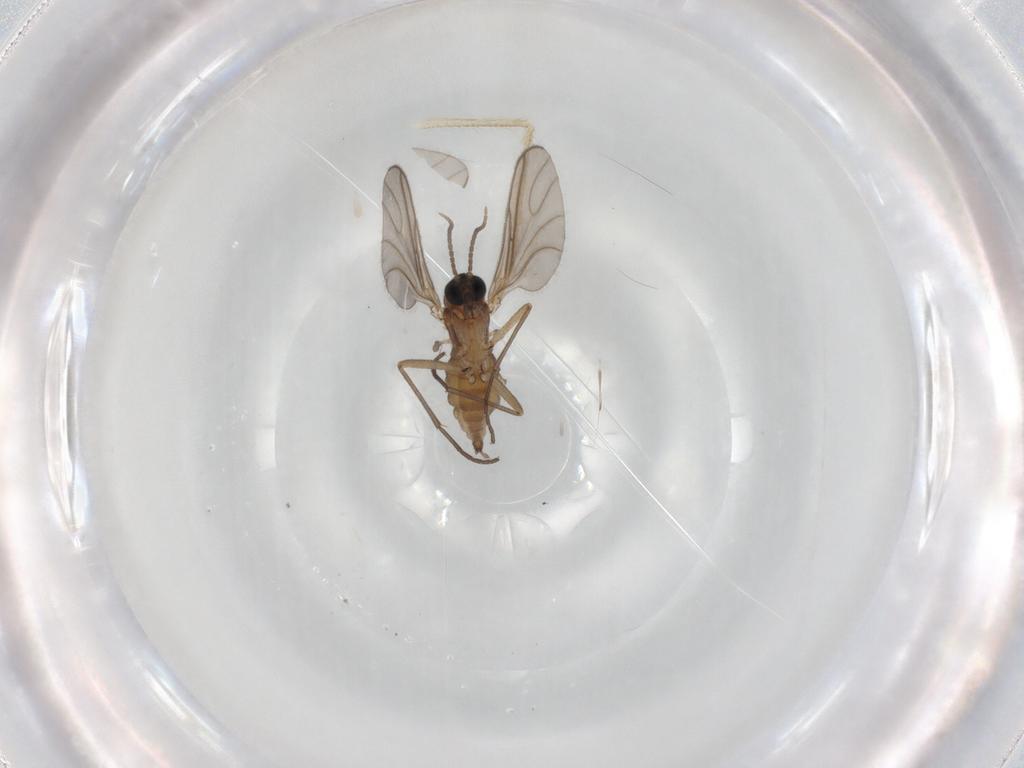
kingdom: Animalia
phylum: Arthropoda
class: Insecta
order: Diptera
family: Sciaridae
